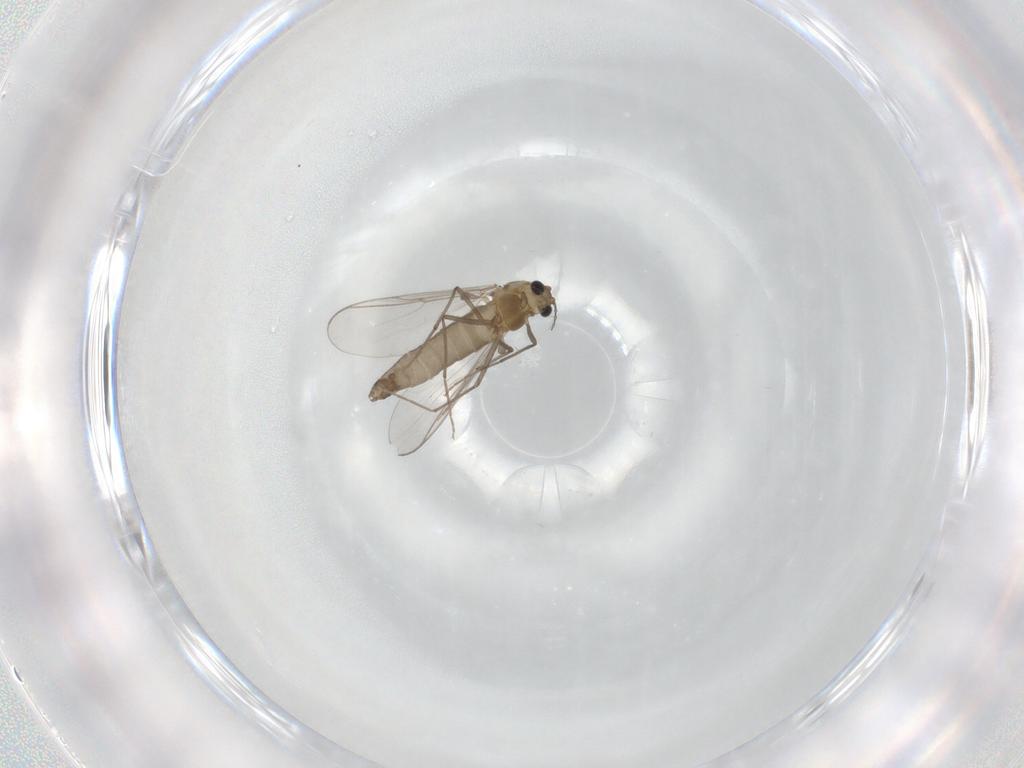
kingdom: Animalia
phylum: Arthropoda
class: Insecta
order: Diptera
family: Chironomidae
